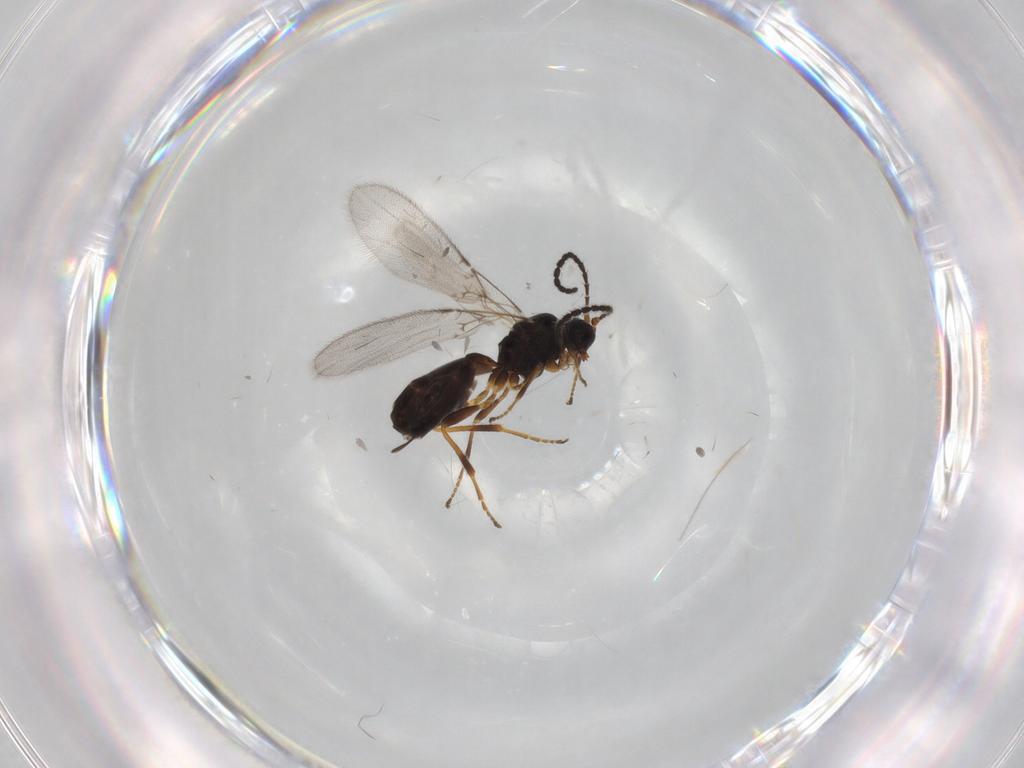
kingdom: Animalia
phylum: Arthropoda
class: Insecta
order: Hymenoptera
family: Braconidae
